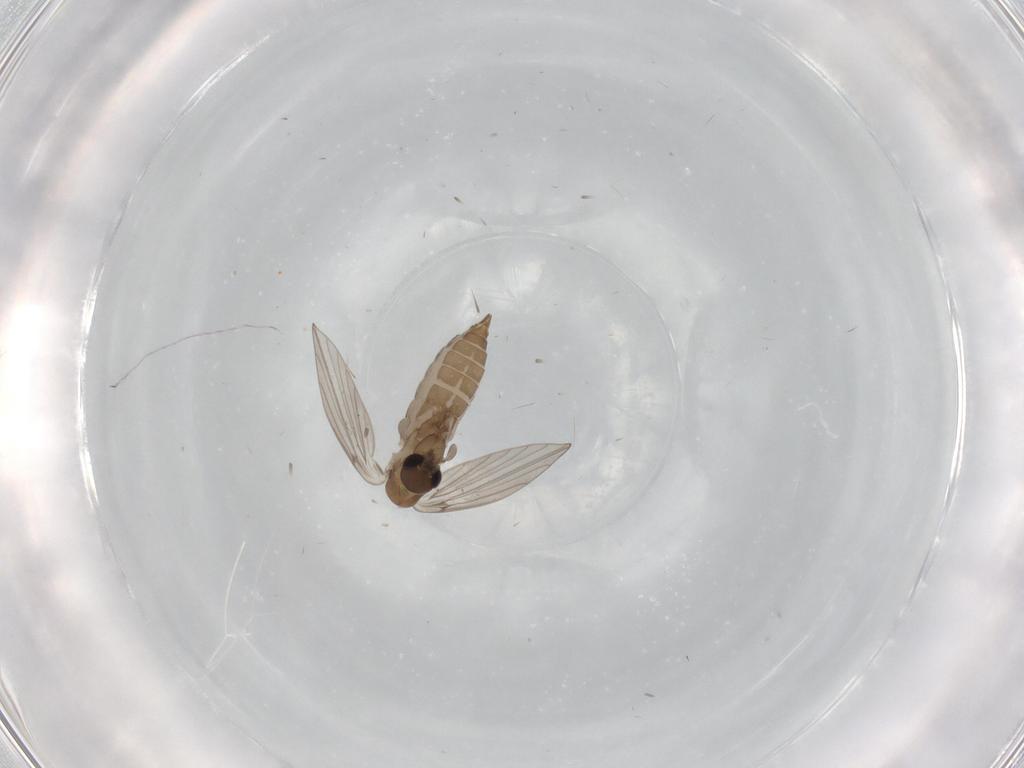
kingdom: Animalia
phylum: Arthropoda
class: Insecta
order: Diptera
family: Psychodidae
